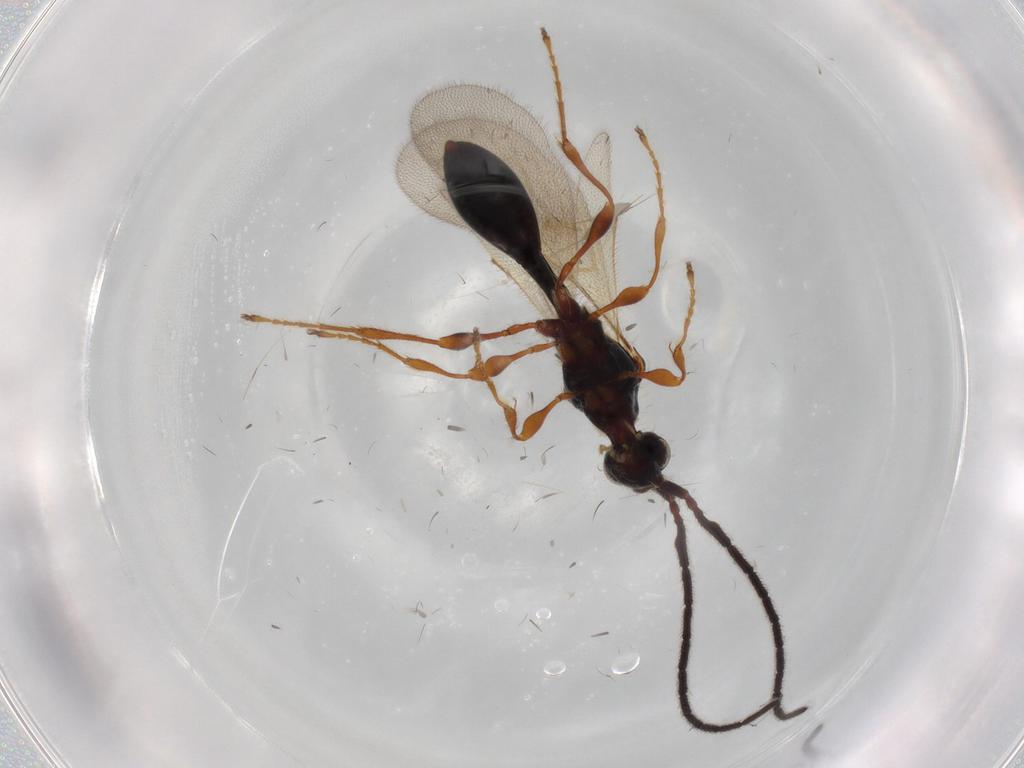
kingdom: Animalia
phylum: Arthropoda
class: Insecta
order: Hymenoptera
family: Diapriidae
